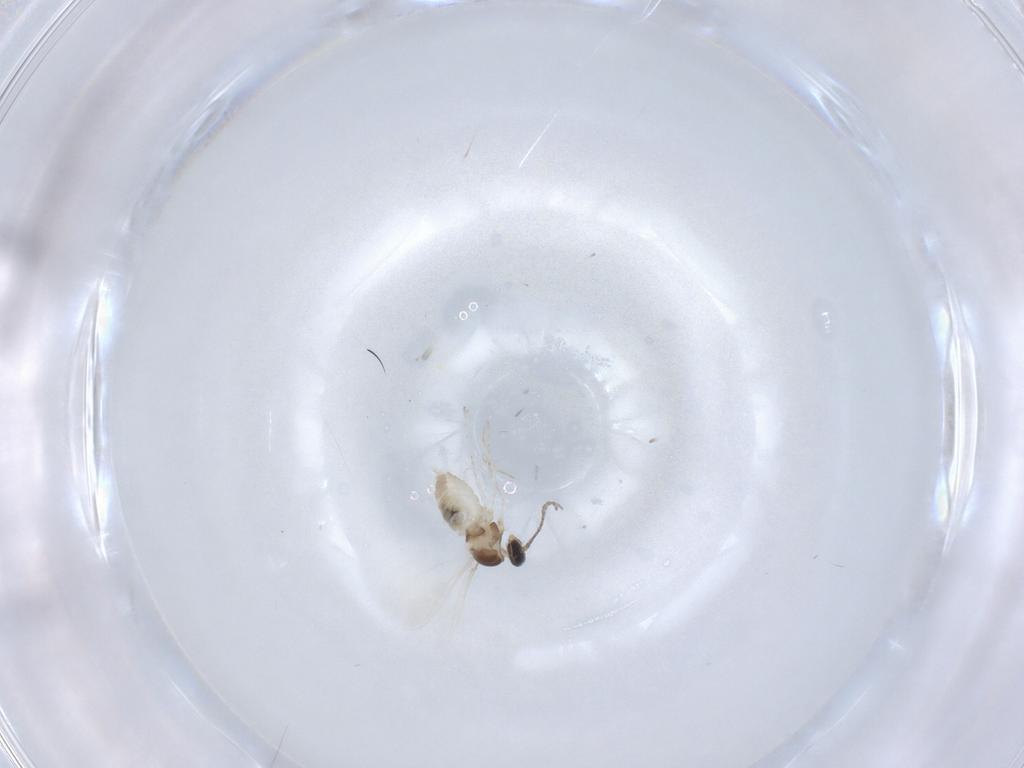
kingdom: Animalia
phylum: Arthropoda
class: Insecta
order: Diptera
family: Cecidomyiidae
